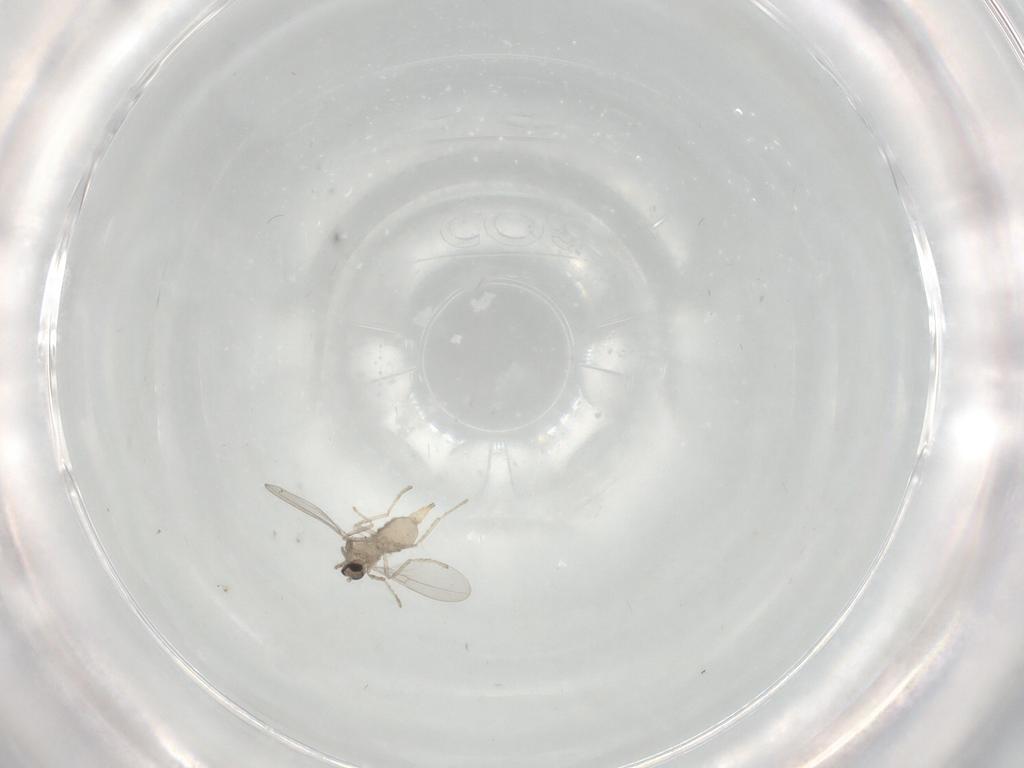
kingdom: Animalia
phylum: Arthropoda
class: Insecta
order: Diptera
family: Cecidomyiidae
